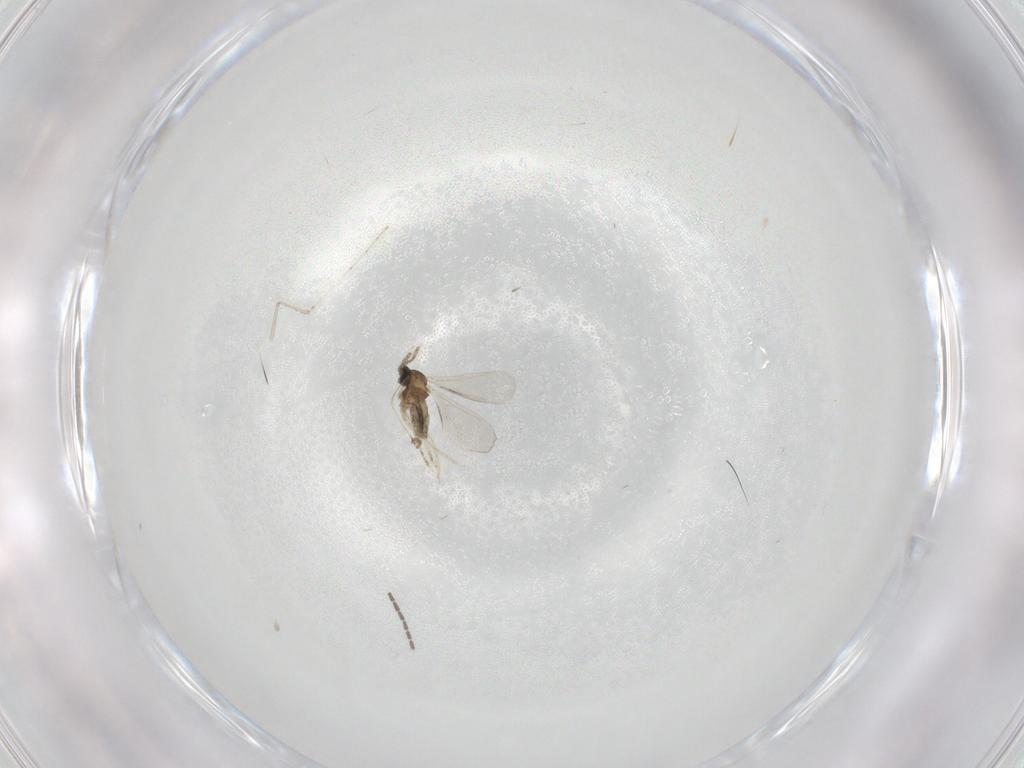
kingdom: Animalia
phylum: Arthropoda
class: Insecta
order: Diptera
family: Cecidomyiidae
